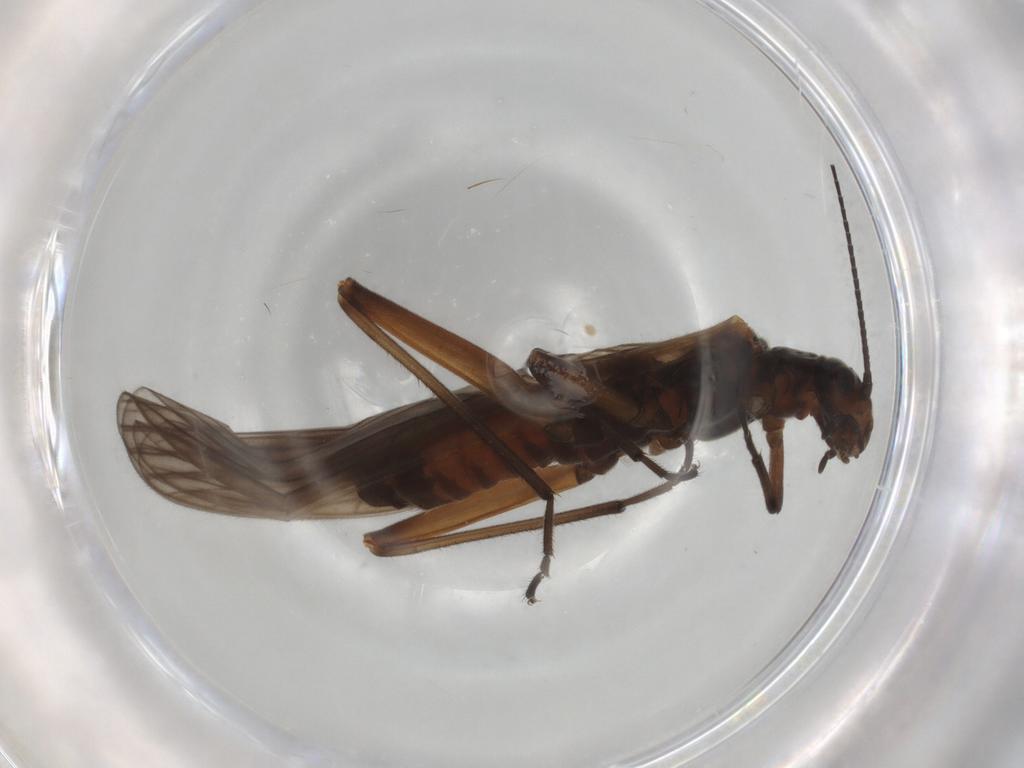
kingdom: Animalia
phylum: Arthropoda
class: Insecta
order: Plecoptera
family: Notonemouridae
